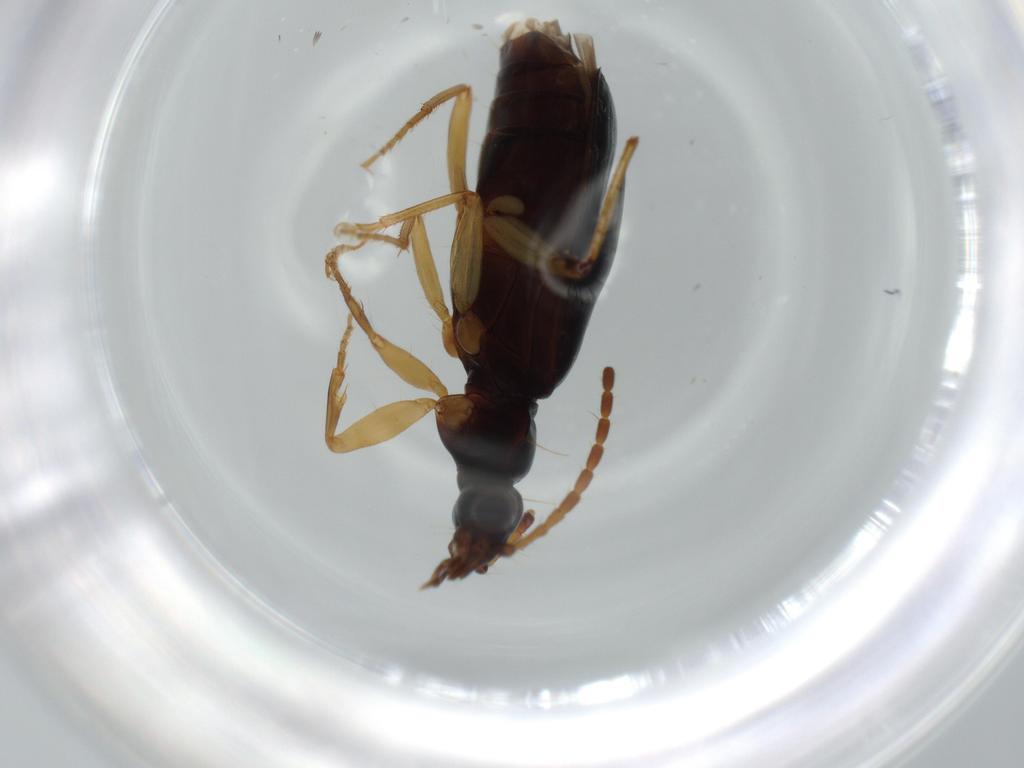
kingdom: Animalia
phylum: Arthropoda
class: Insecta
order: Coleoptera
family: Carabidae
